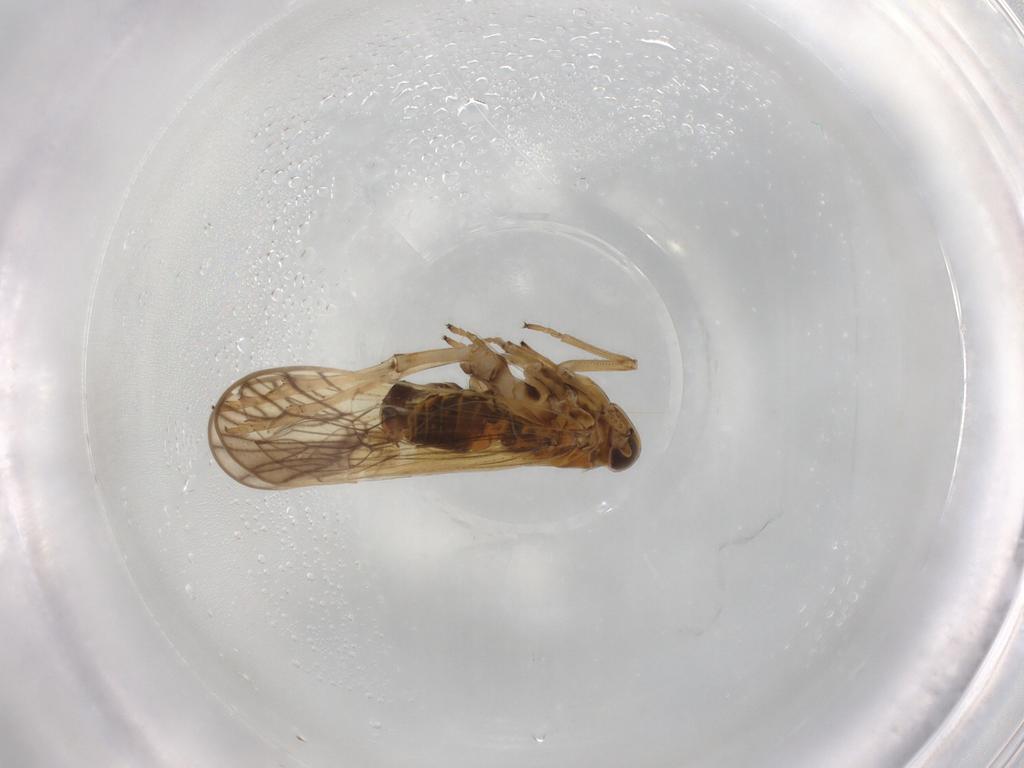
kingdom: Animalia
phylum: Arthropoda
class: Insecta
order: Hemiptera
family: Delphacidae
